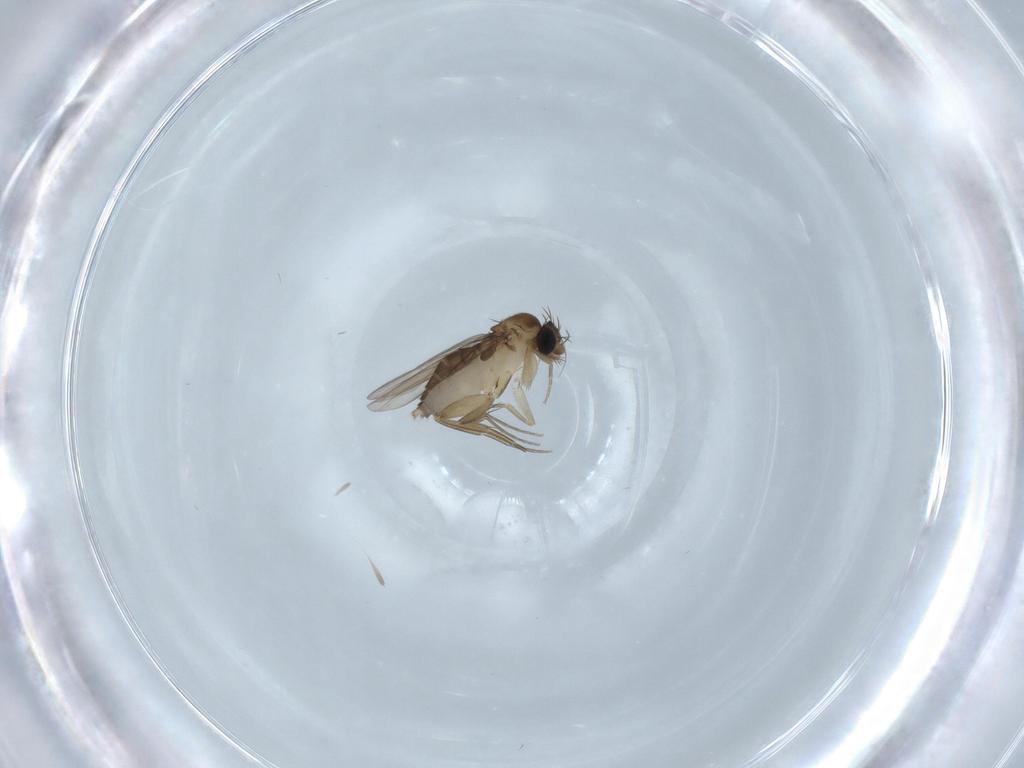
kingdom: Animalia
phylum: Arthropoda
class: Insecta
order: Diptera
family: Phoridae
